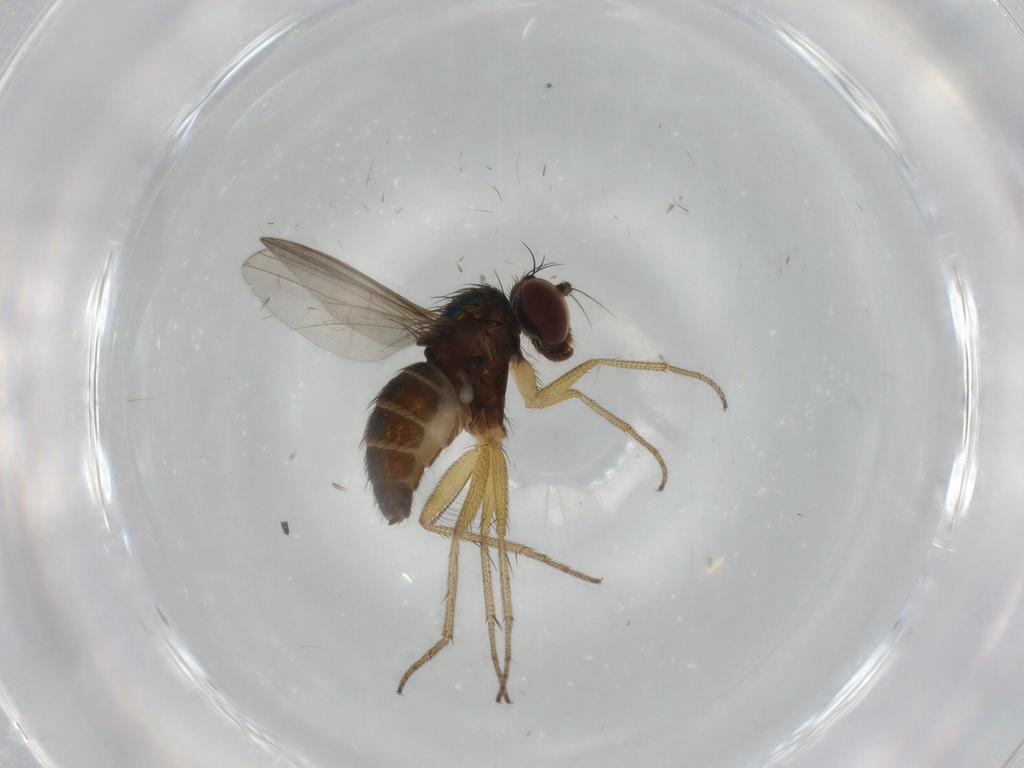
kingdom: Animalia
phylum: Arthropoda
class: Insecta
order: Diptera
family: Dolichopodidae
